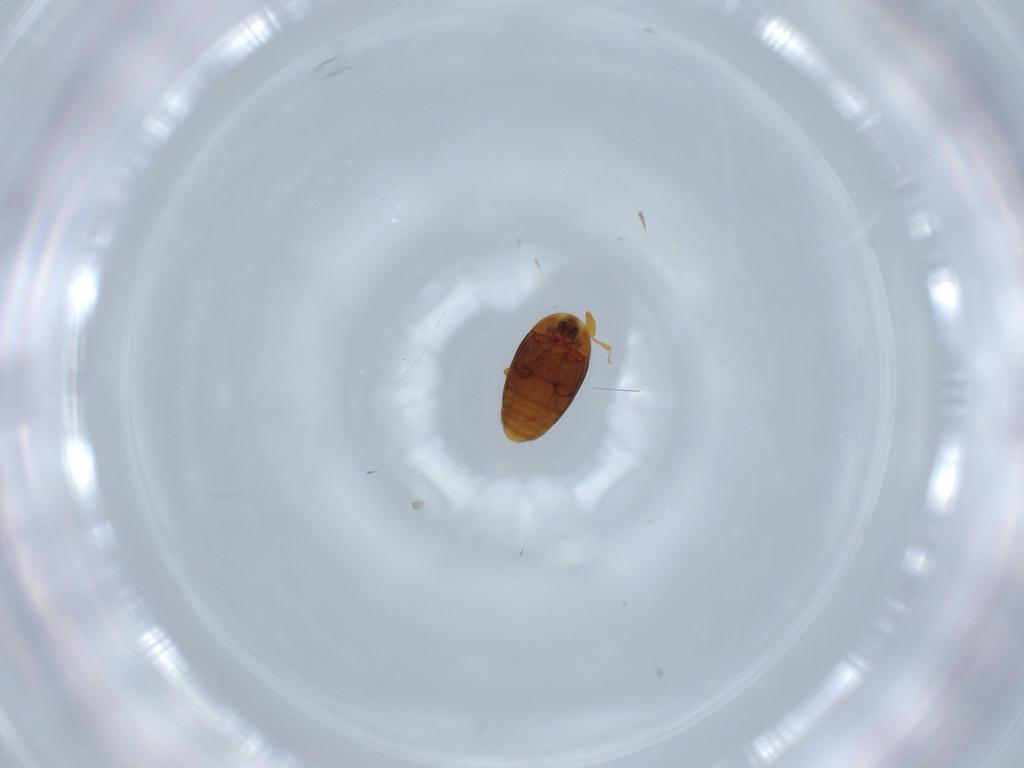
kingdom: Animalia
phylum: Arthropoda
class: Insecta
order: Coleoptera
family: Corylophidae
